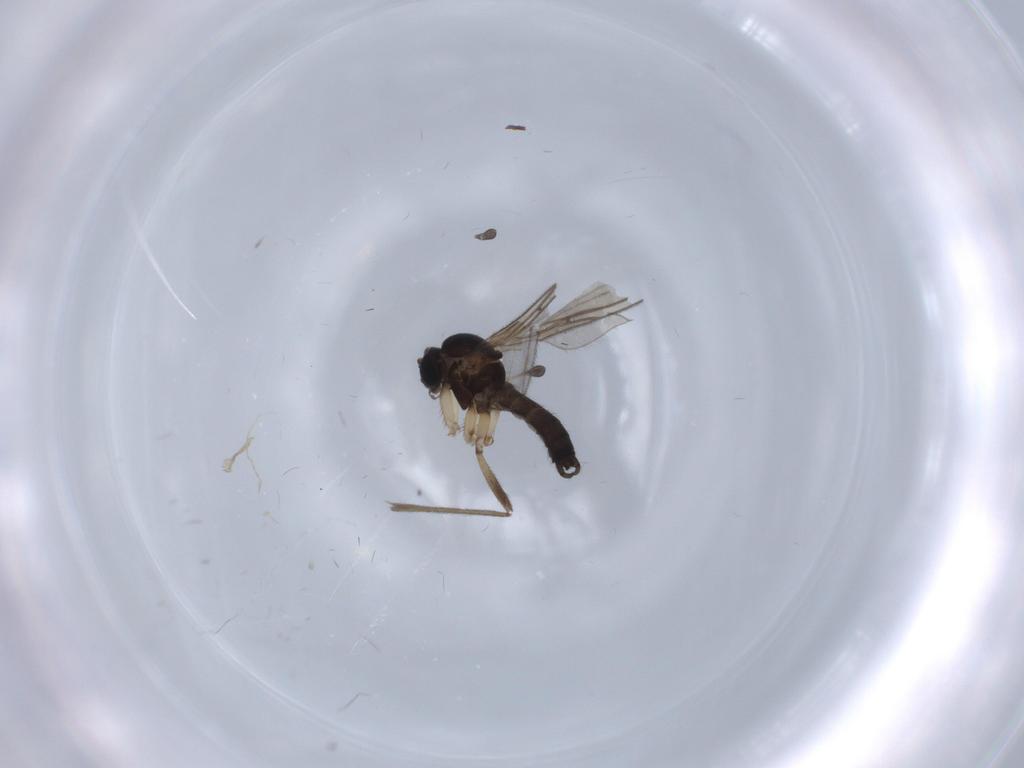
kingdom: Animalia
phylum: Arthropoda
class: Insecta
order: Diptera
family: Sciaridae
